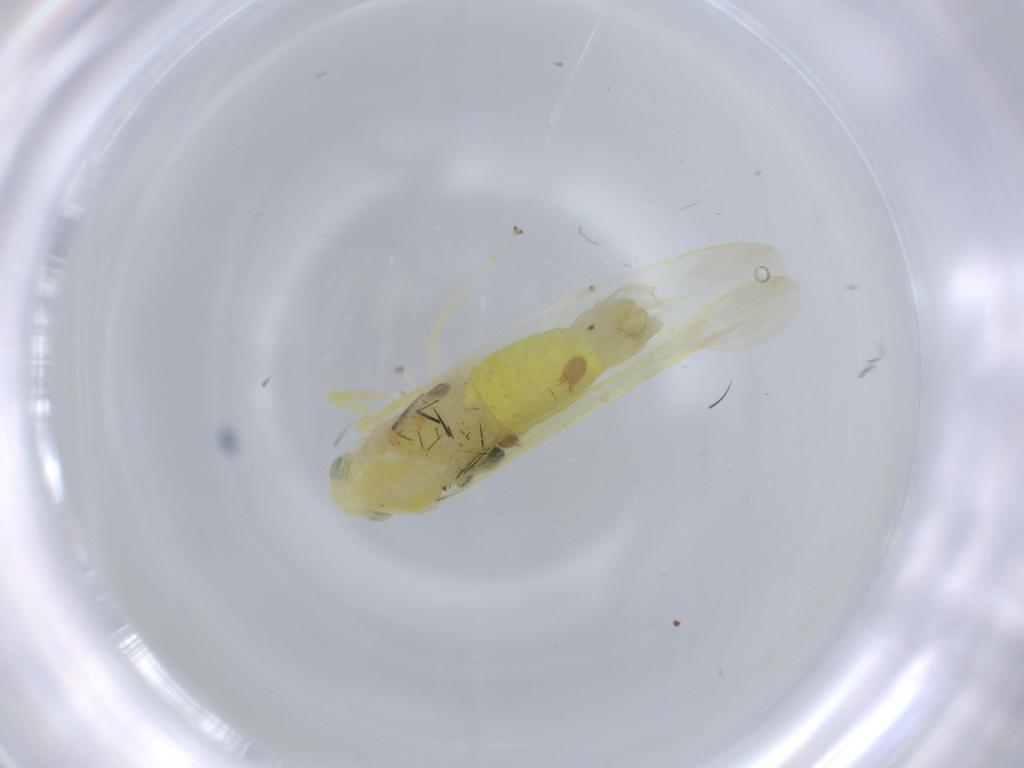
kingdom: Animalia
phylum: Arthropoda
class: Insecta
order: Hemiptera
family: Cicadellidae
